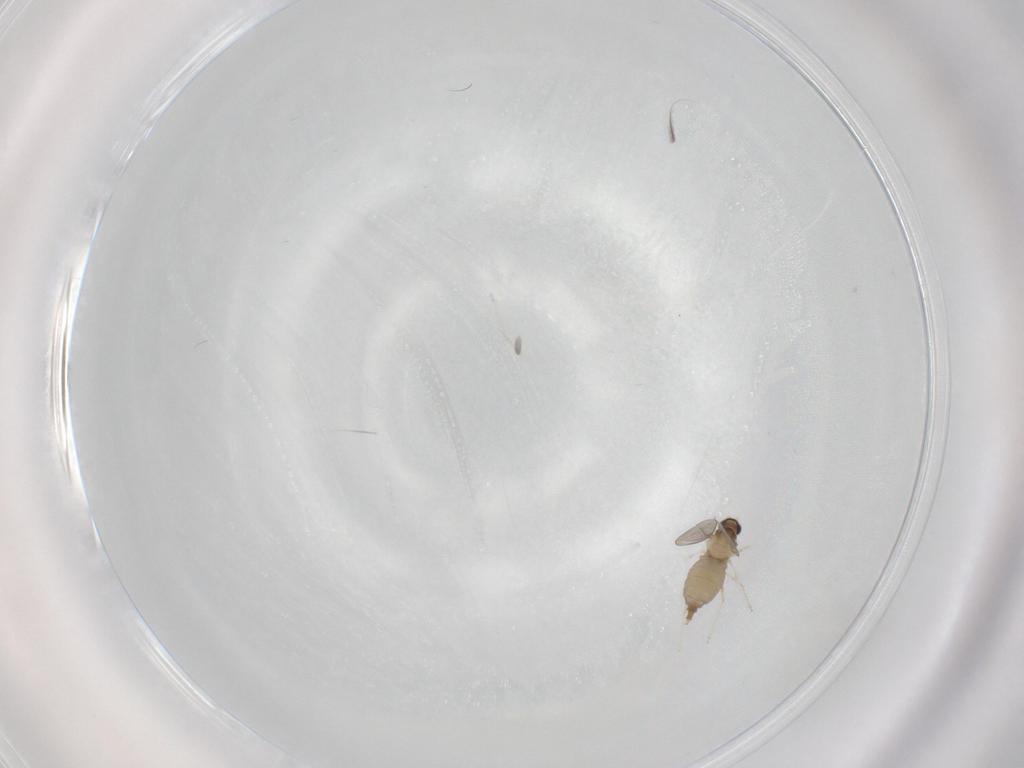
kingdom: Animalia
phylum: Arthropoda
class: Insecta
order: Diptera
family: Cecidomyiidae
